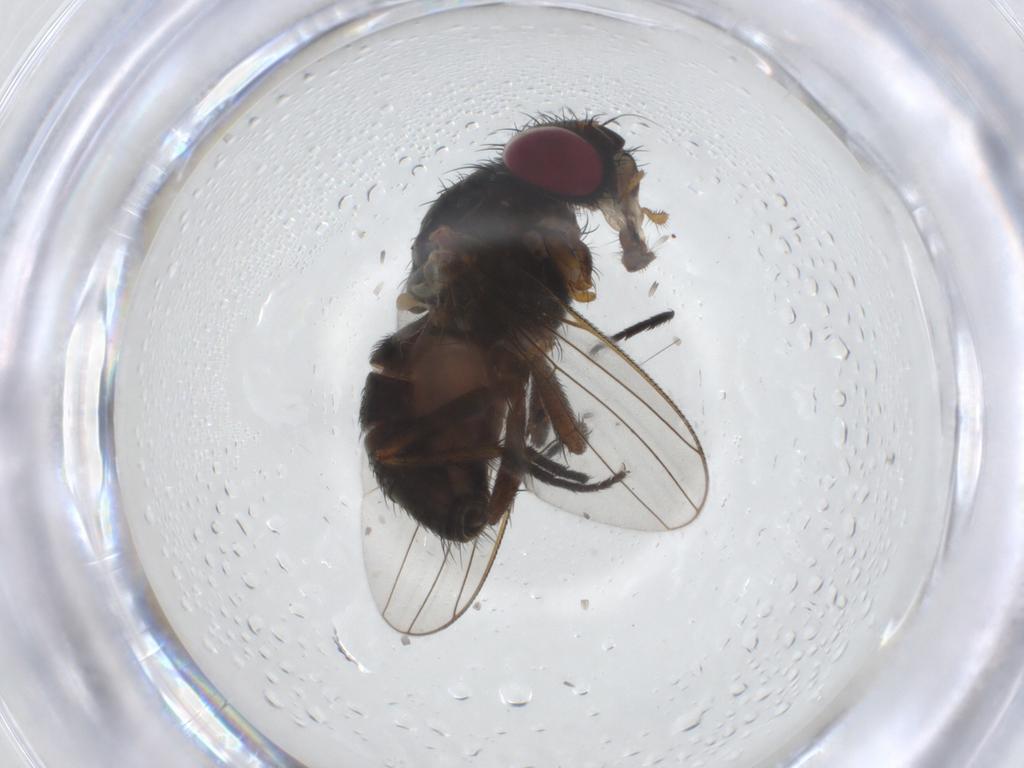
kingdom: Animalia
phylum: Arthropoda
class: Insecta
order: Diptera
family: Fannia
